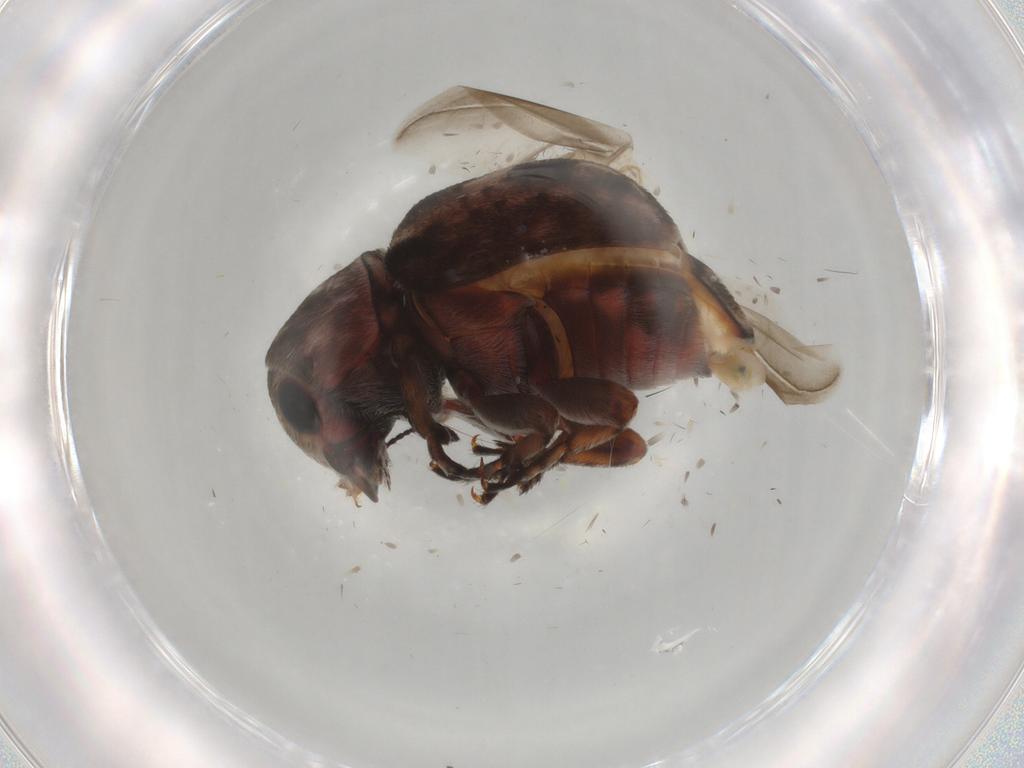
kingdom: Animalia
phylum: Arthropoda
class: Insecta
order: Coleoptera
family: Anthribidae
